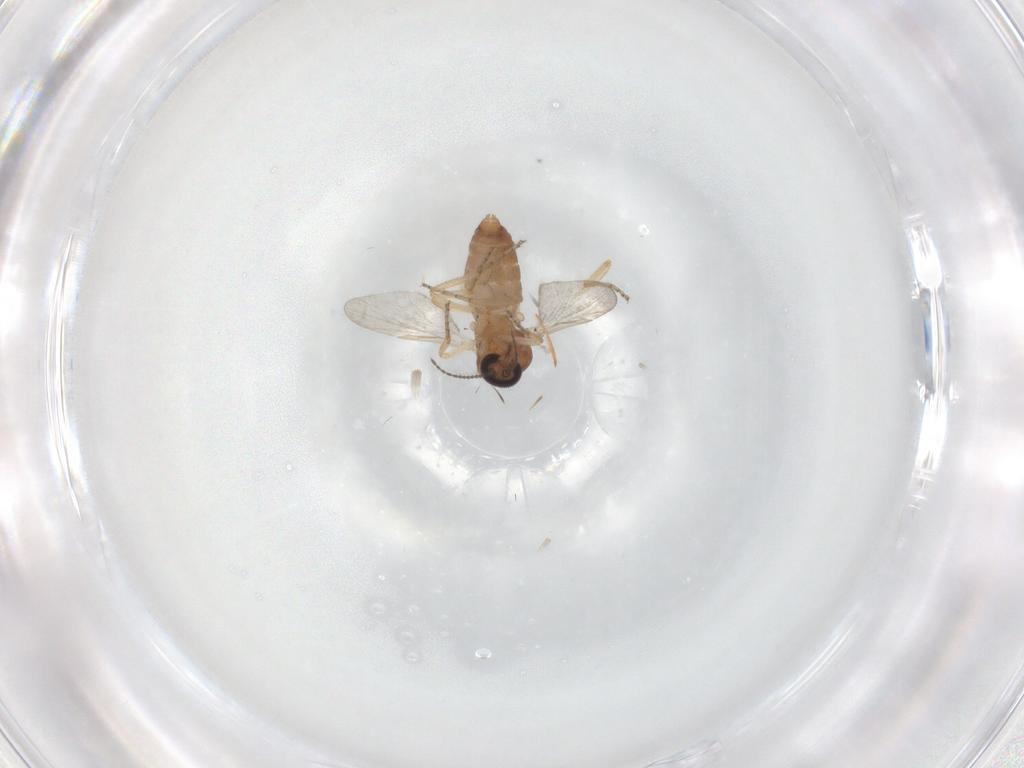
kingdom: Animalia
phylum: Arthropoda
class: Insecta
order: Diptera
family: Ceratopogonidae
